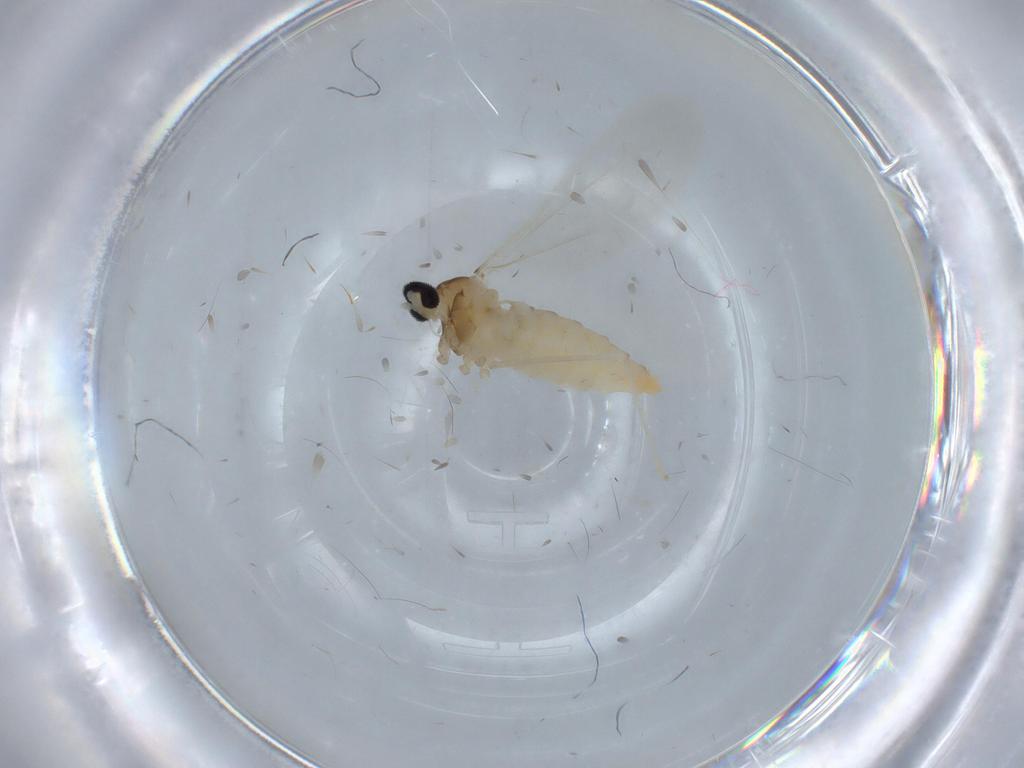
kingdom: Animalia
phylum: Arthropoda
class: Insecta
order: Diptera
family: Cecidomyiidae
